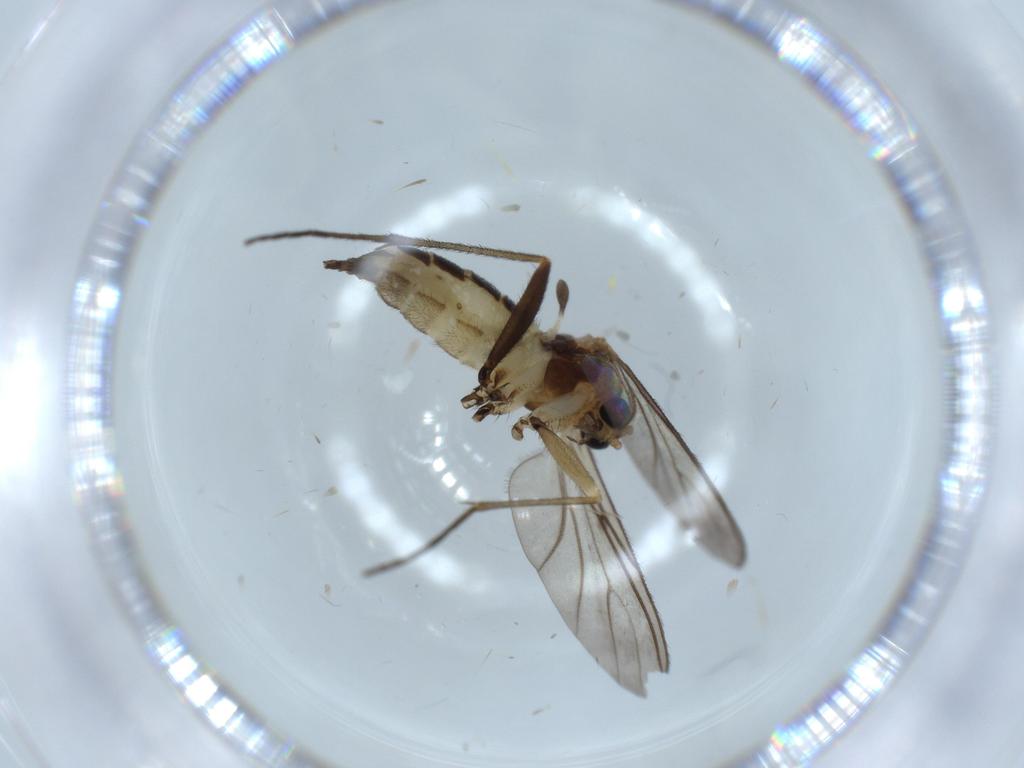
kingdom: Animalia
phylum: Arthropoda
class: Insecta
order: Diptera
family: Sciaridae
